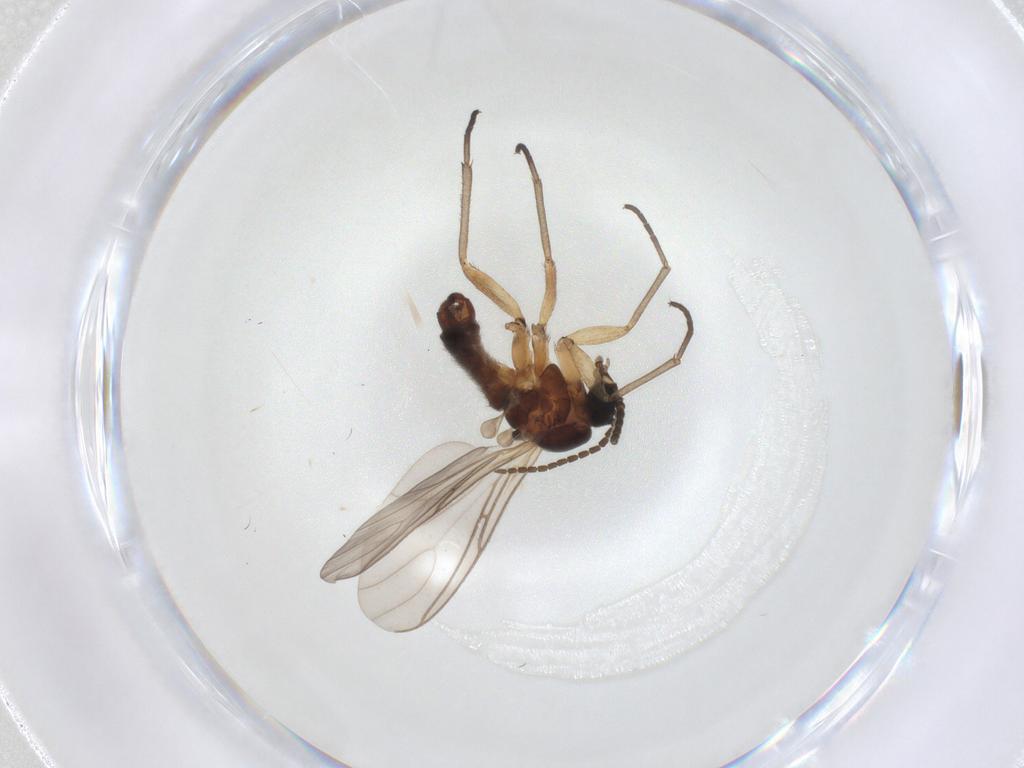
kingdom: Animalia
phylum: Arthropoda
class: Insecta
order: Diptera
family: Sciaridae
